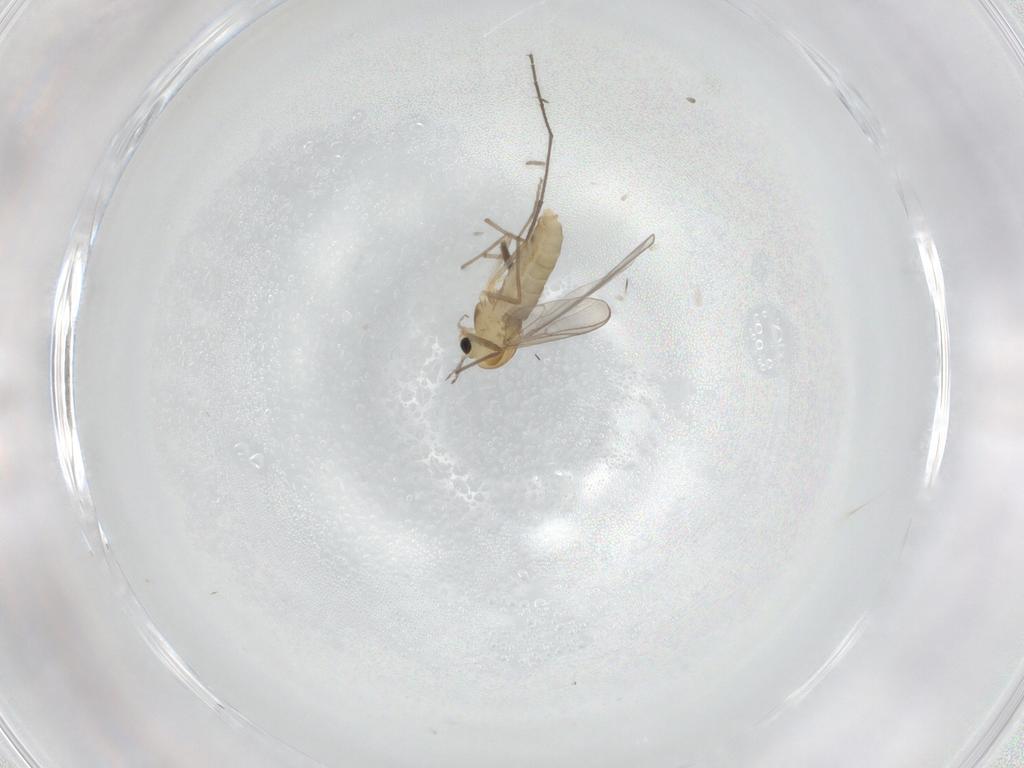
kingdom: Animalia
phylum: Arthropoda
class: Insecta
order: Diptera
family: Chironomidae
